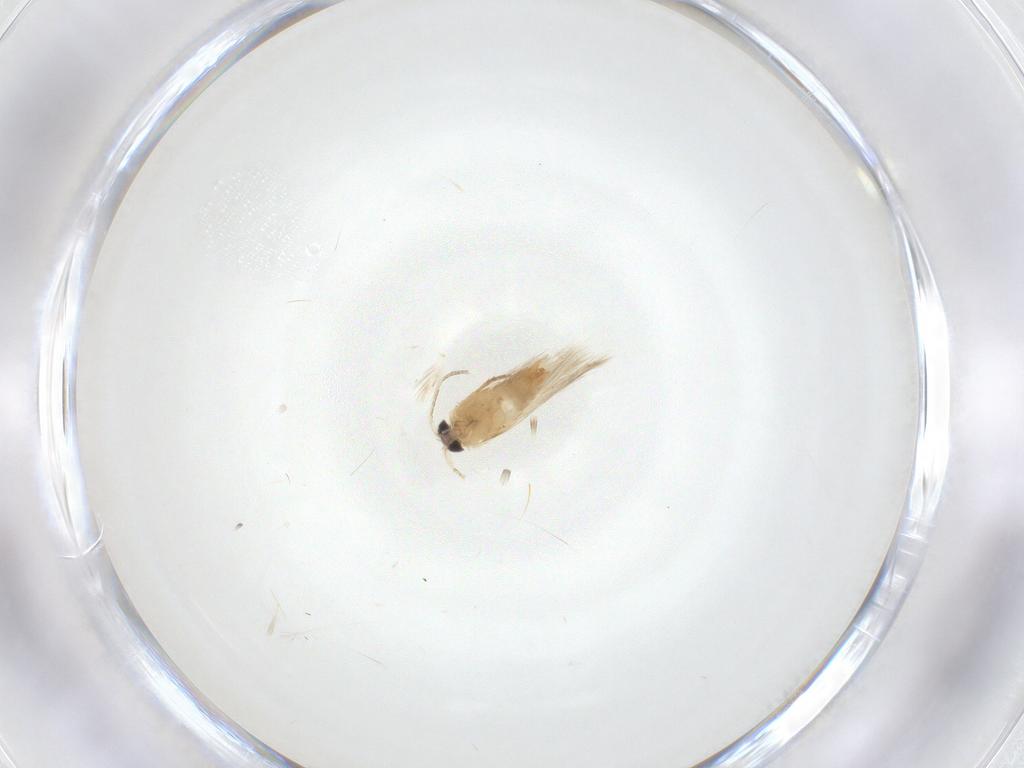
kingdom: Animalia
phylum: Arthropoda
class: Insecta
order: Lepidoptera
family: Crambidae
